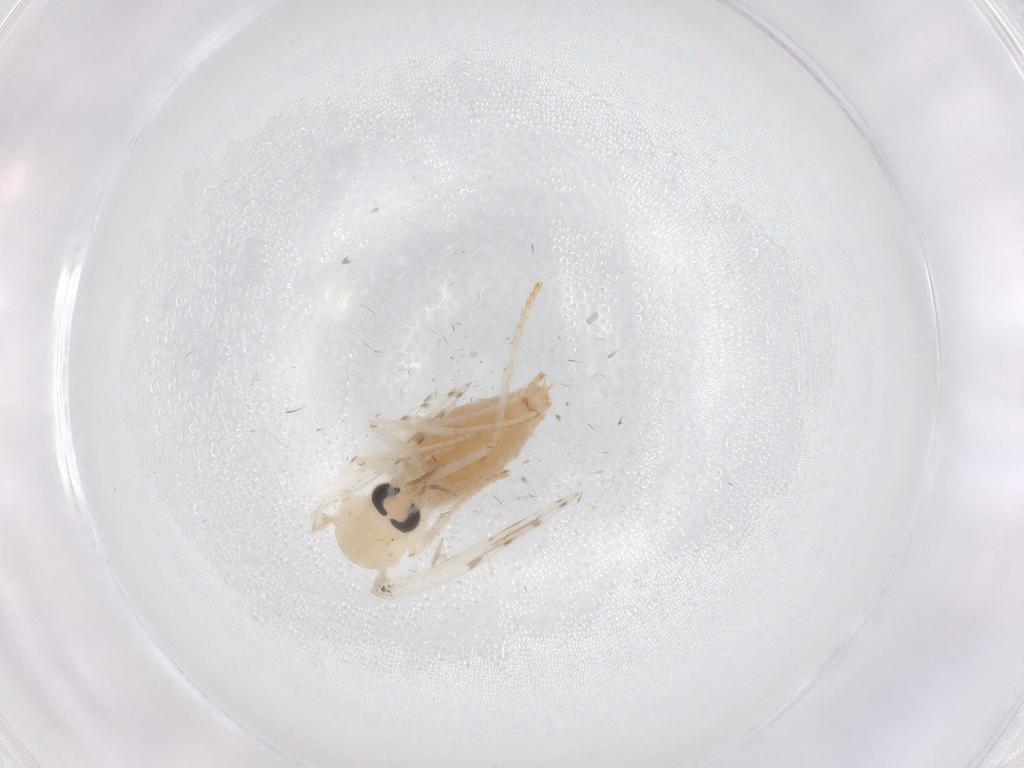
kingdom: Animalia
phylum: Arthropoda
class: Insecta
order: Diptera
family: Psychodidae
